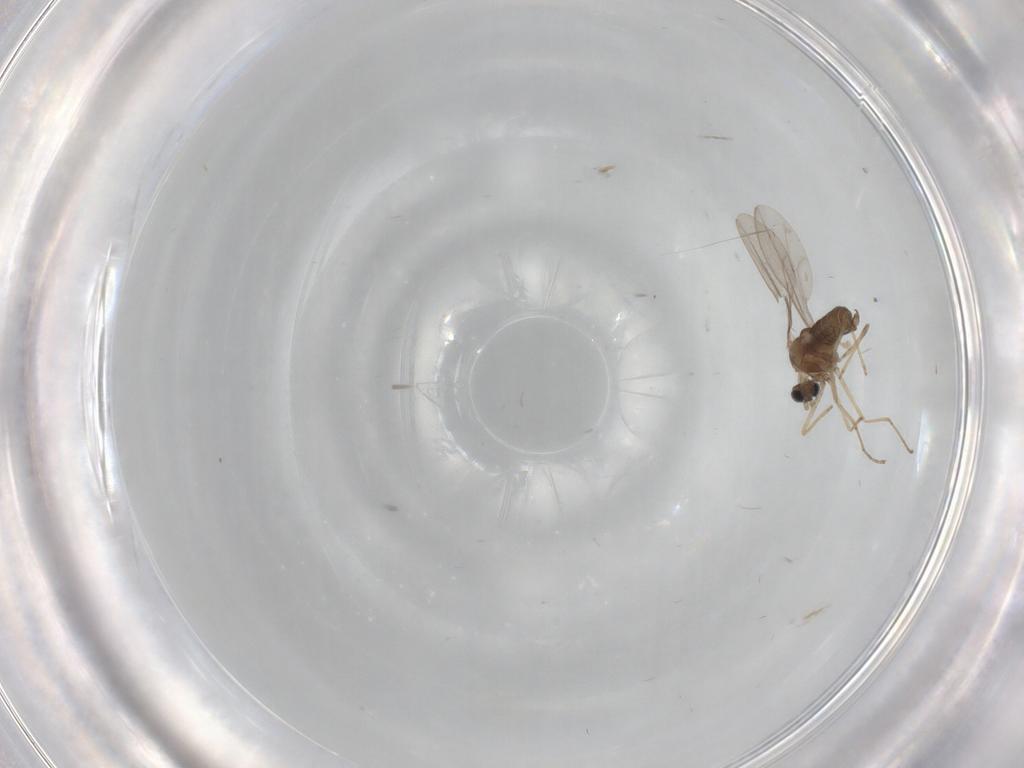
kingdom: Animalia
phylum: Arthropoda
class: Insecta
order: Diptera
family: Cecidomyiidae
